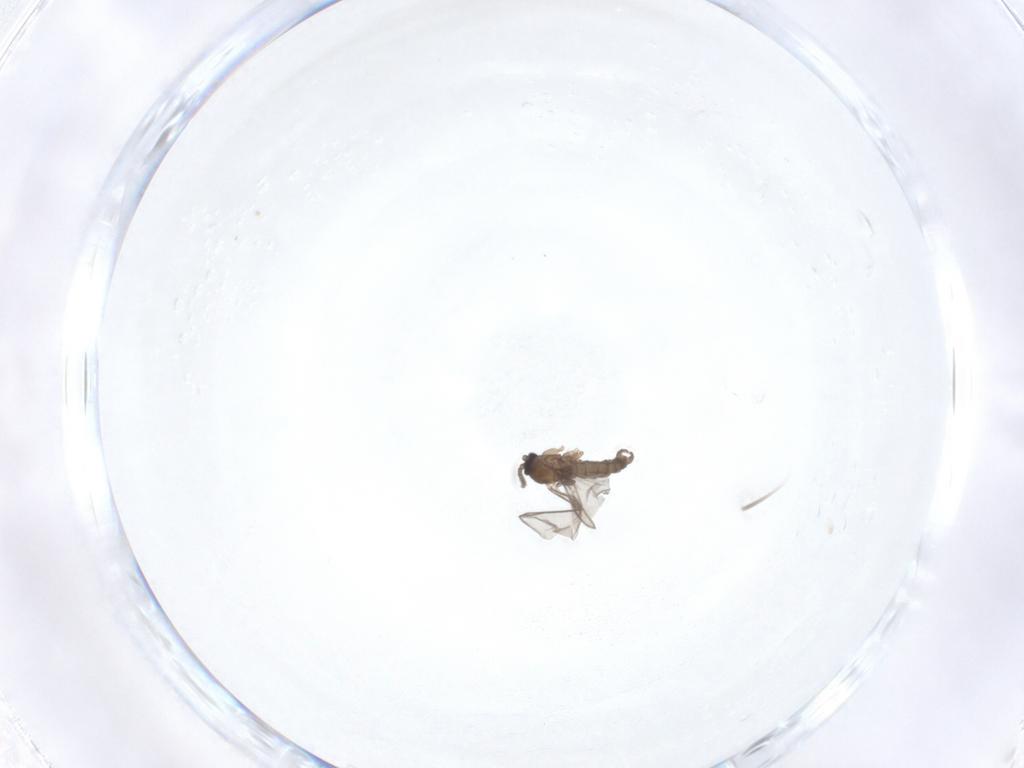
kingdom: Animalia
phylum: Arthropoda
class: Insecta
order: Diptera
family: Sciaridae
